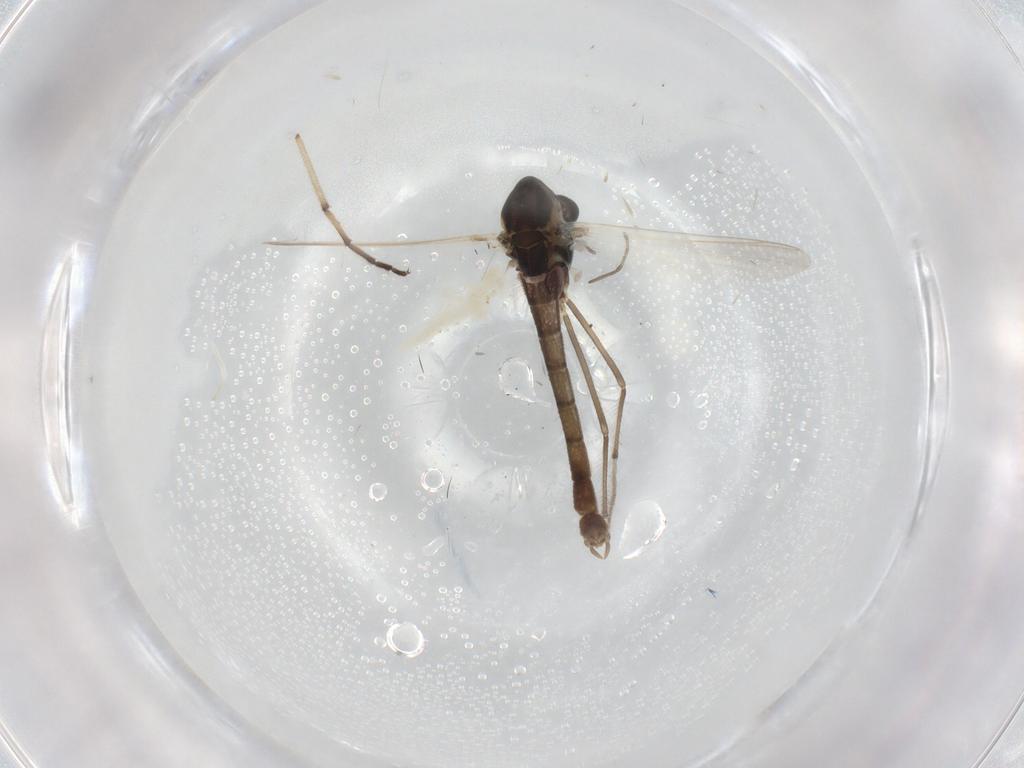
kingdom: Animalia
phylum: Arthropoda
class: Insecta
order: Diptera
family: Chironomidae
